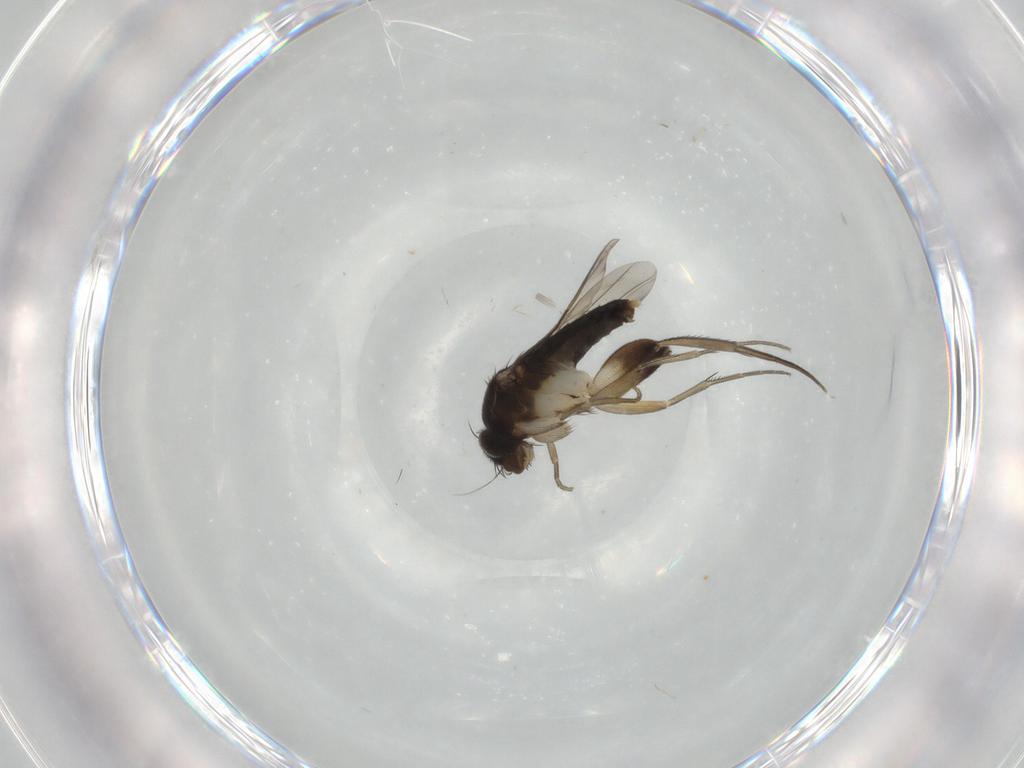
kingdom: Animalia
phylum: Arthropoda
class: Insecta
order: Diptera
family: Phoridae
